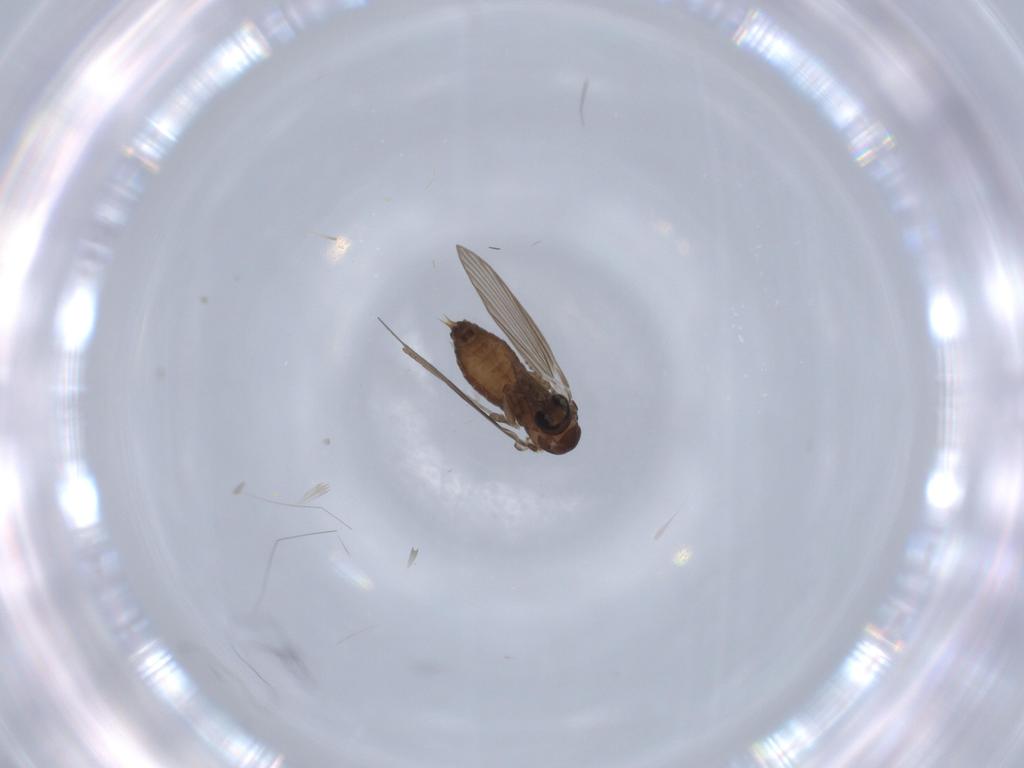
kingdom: Animalia
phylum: Arthropoda
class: Insecta
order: Diptera
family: Psychodidae
